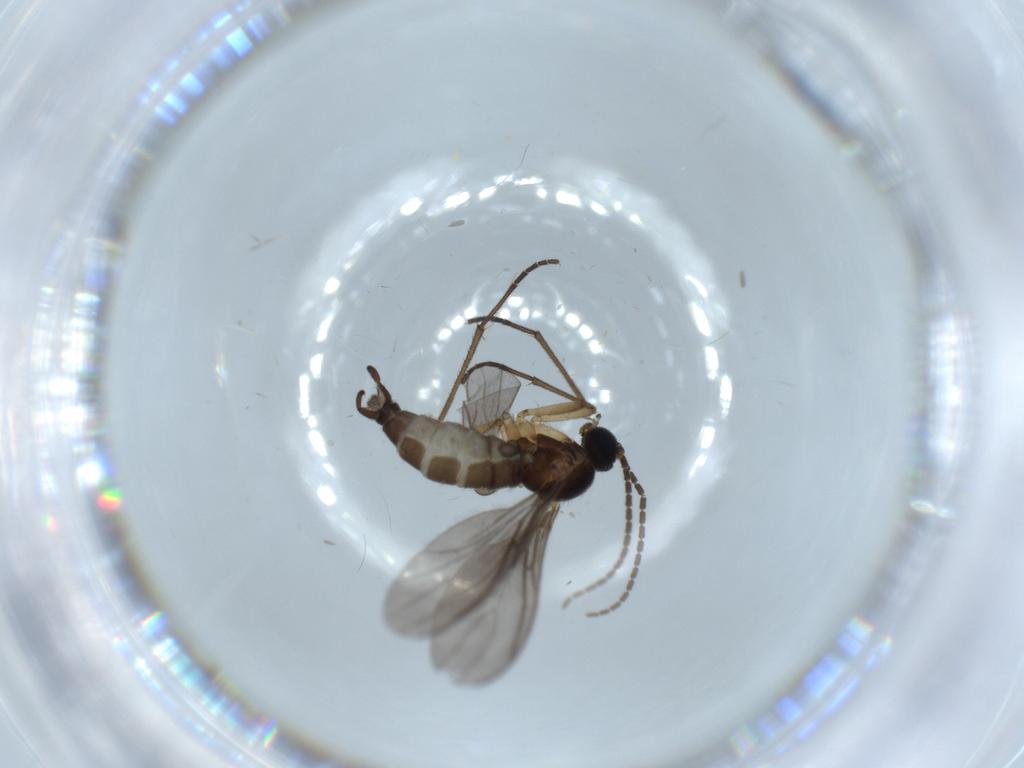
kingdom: Animalia
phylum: Arthropoda
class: Insecta
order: Diptera
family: Sciaridae
